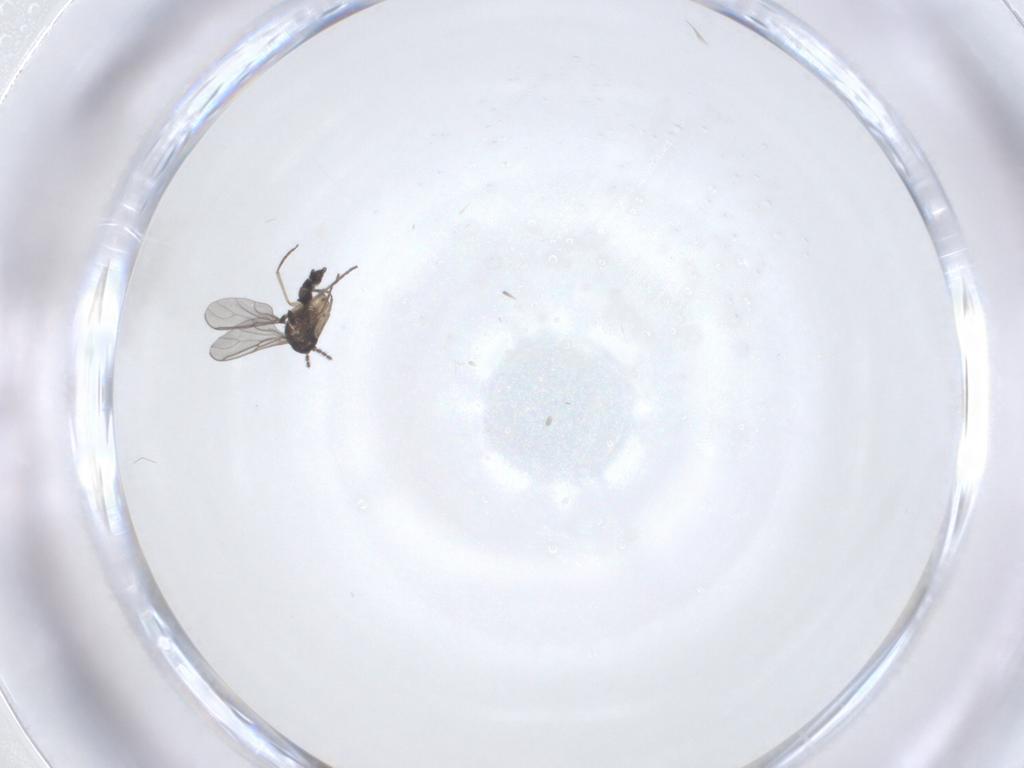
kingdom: Animalia
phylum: Arthropoda
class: Insecta
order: Diptera
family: Sciaridae
